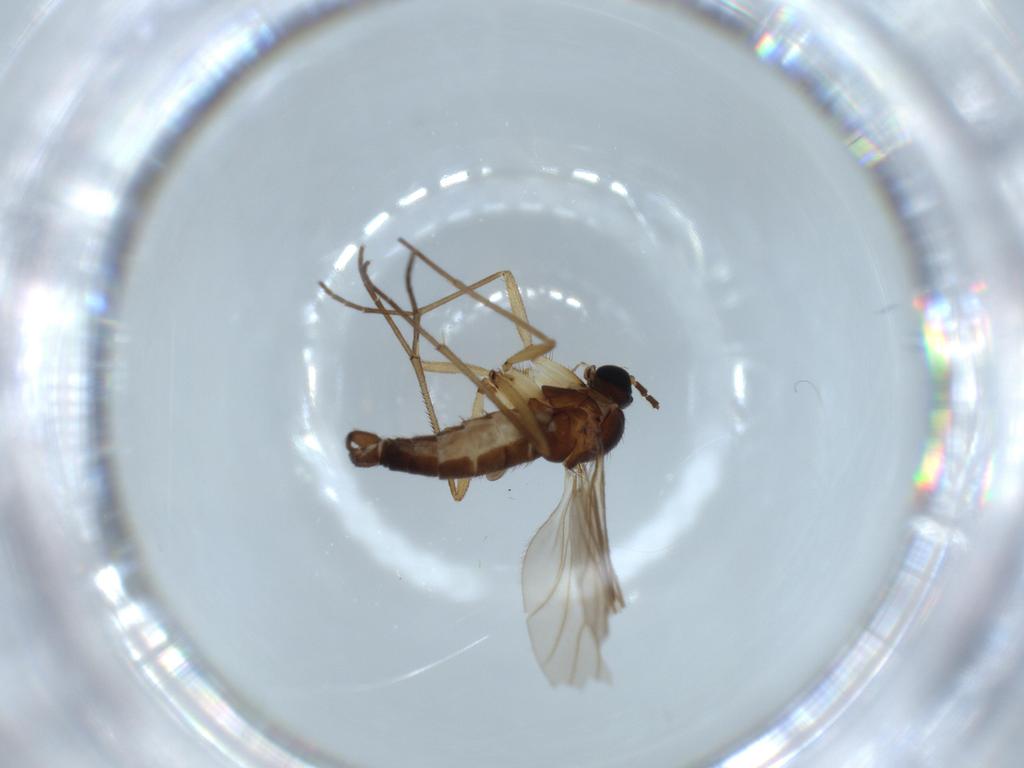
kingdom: Animalia
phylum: Arthropoda
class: Insecta
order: Diptera
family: Sciaridae
